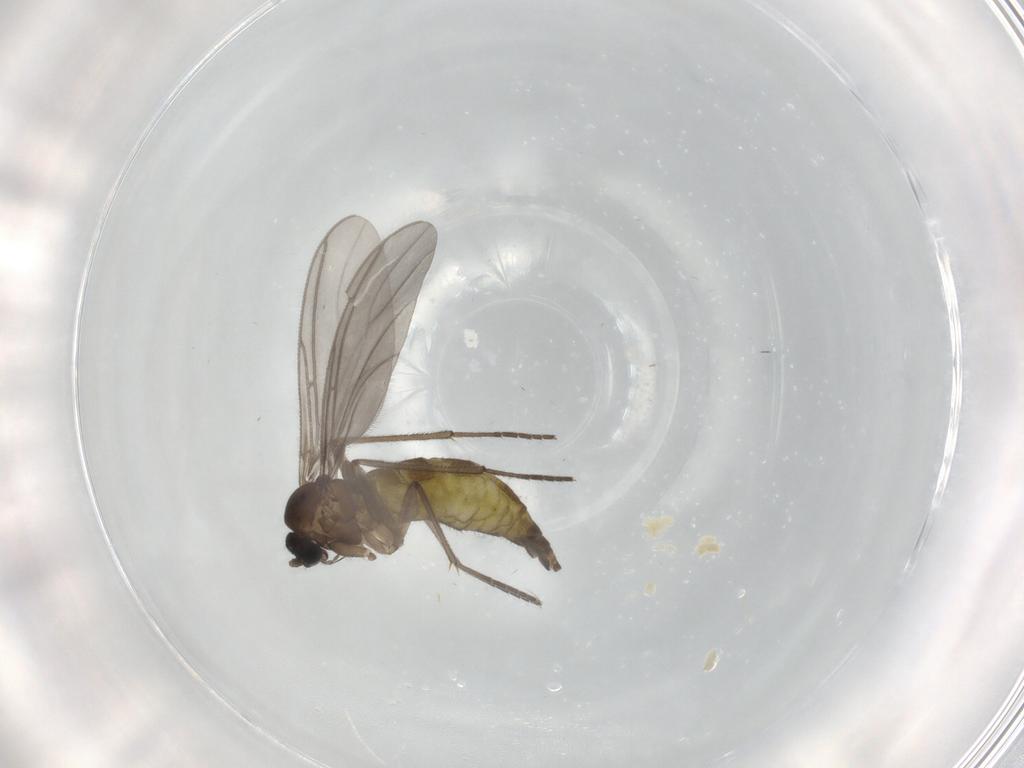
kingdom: Animalia
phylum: Arthropoda
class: Insecta
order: Diptera
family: Sciaridae
